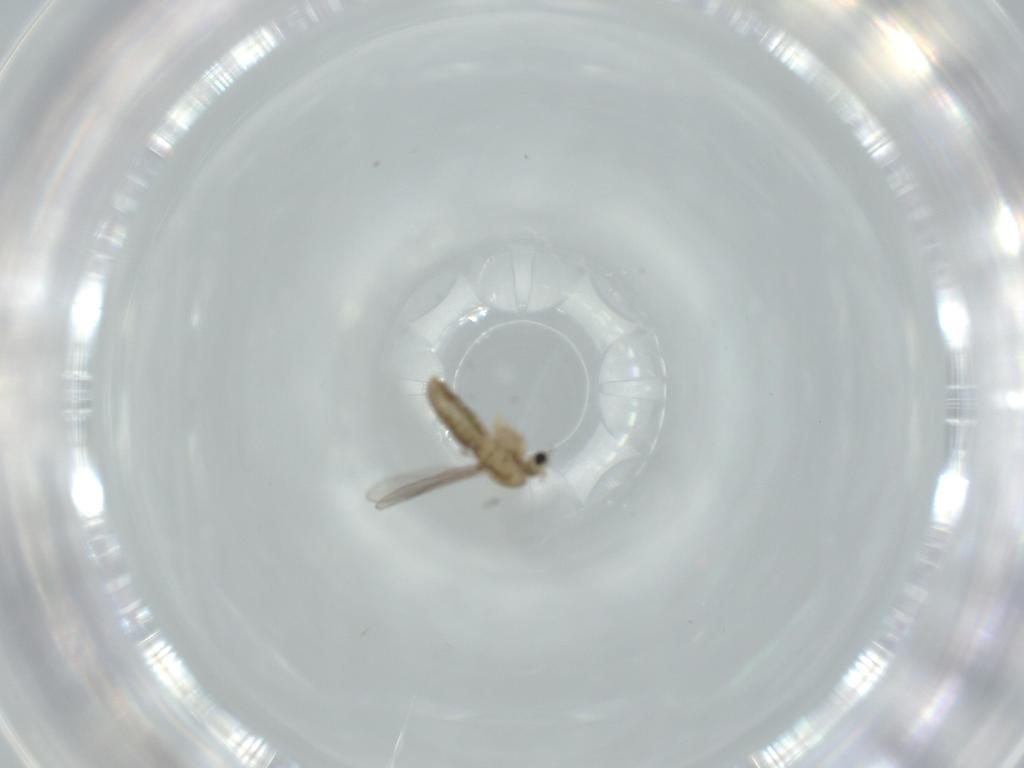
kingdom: Animalia
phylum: Arthropoda
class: Insecta
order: Diptera
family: Chironomidae
